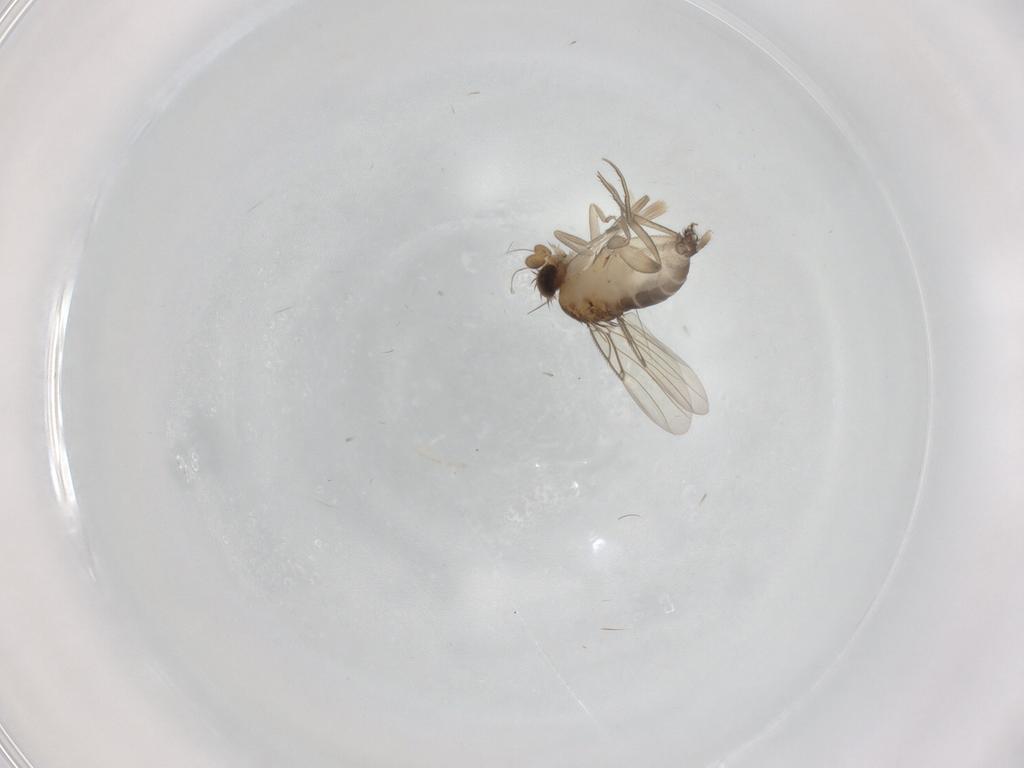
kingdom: Animalia
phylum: Arthropoda
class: Insecta
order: Diptera
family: Phoridae
